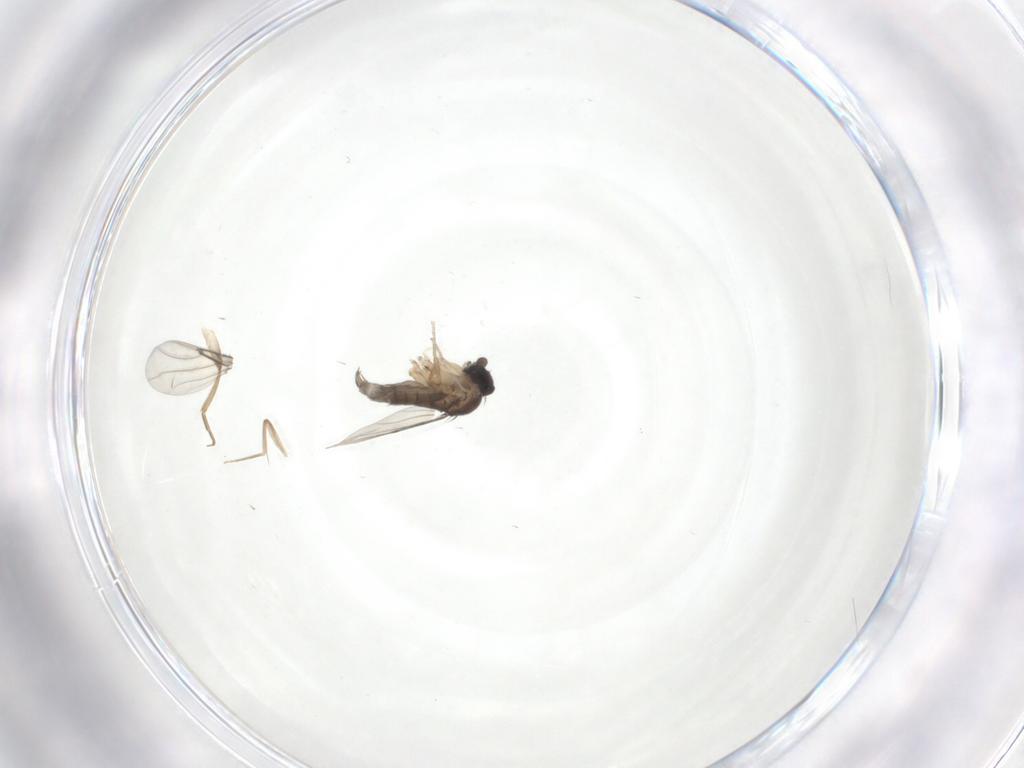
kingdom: Animalia
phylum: Arthropoda
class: Insecta
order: Diptera
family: Phoridae
